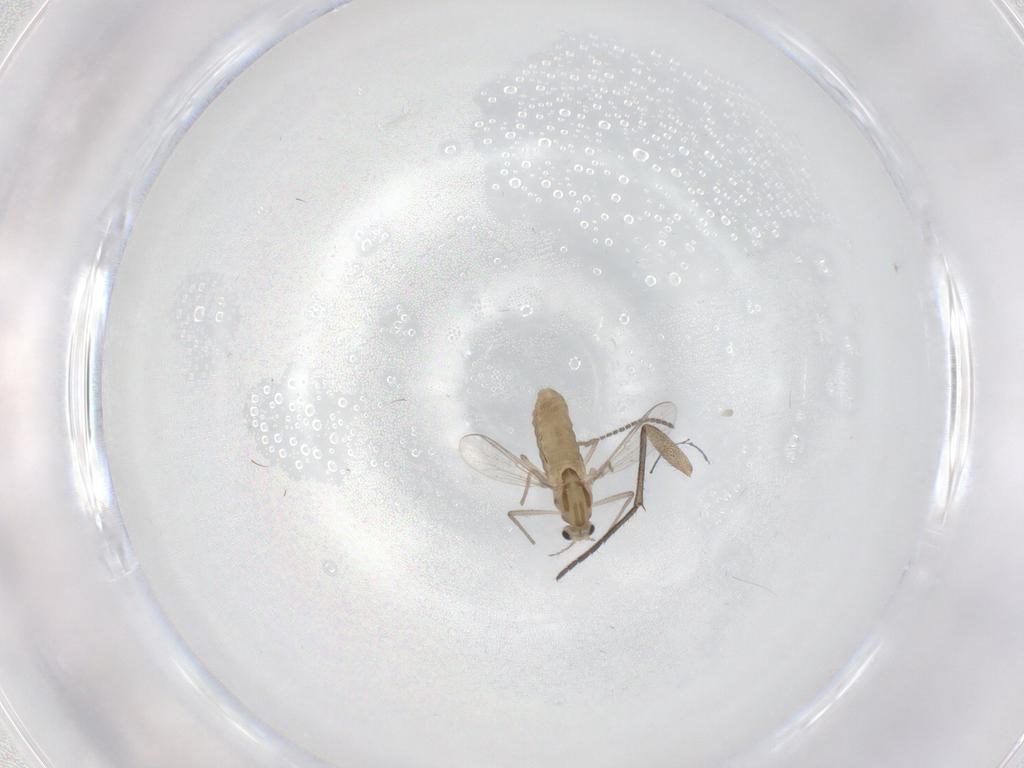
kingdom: Animalia
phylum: Arthropoda
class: Insecta
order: Diptera
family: Chironomidae
